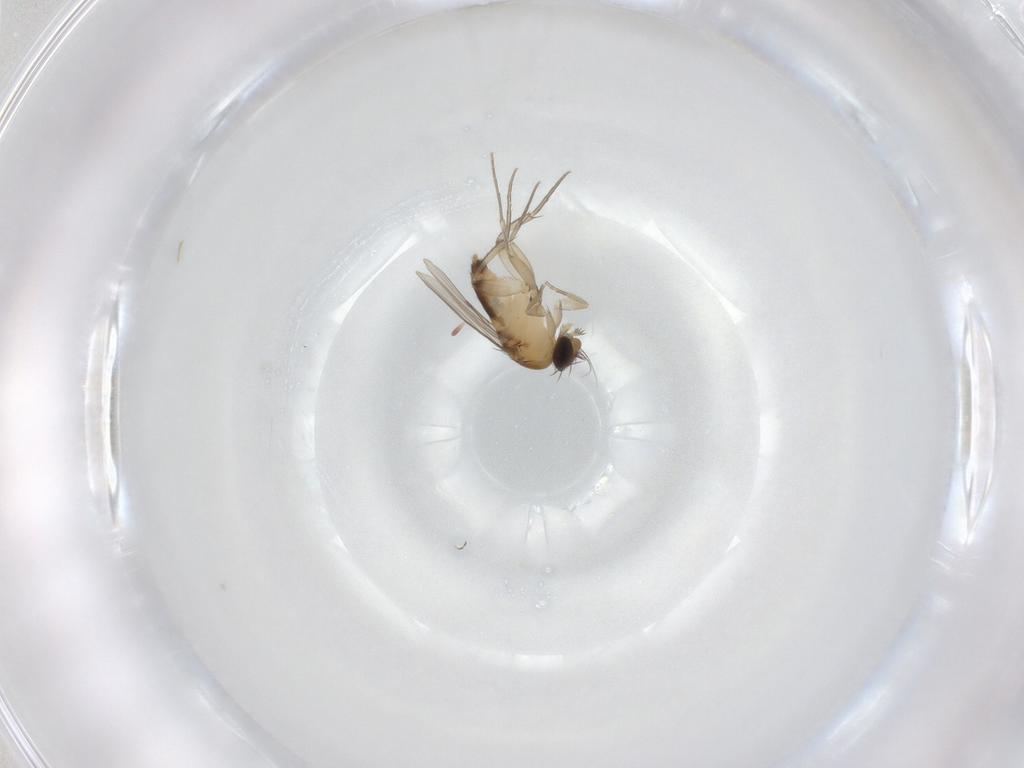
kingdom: Animalia
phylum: Arthropoda
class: Insecta
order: Diptera
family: Phoridae
